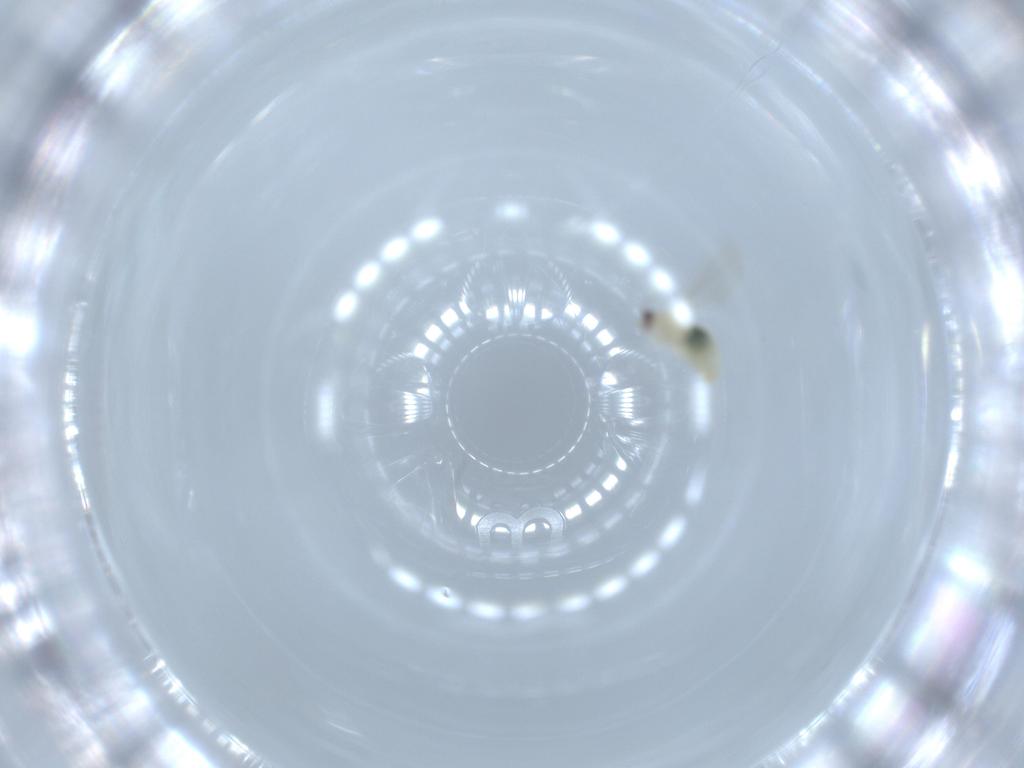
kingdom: Animalia
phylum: Arthropoda
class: Insecta
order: Diptera
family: Cecidomyiidae
